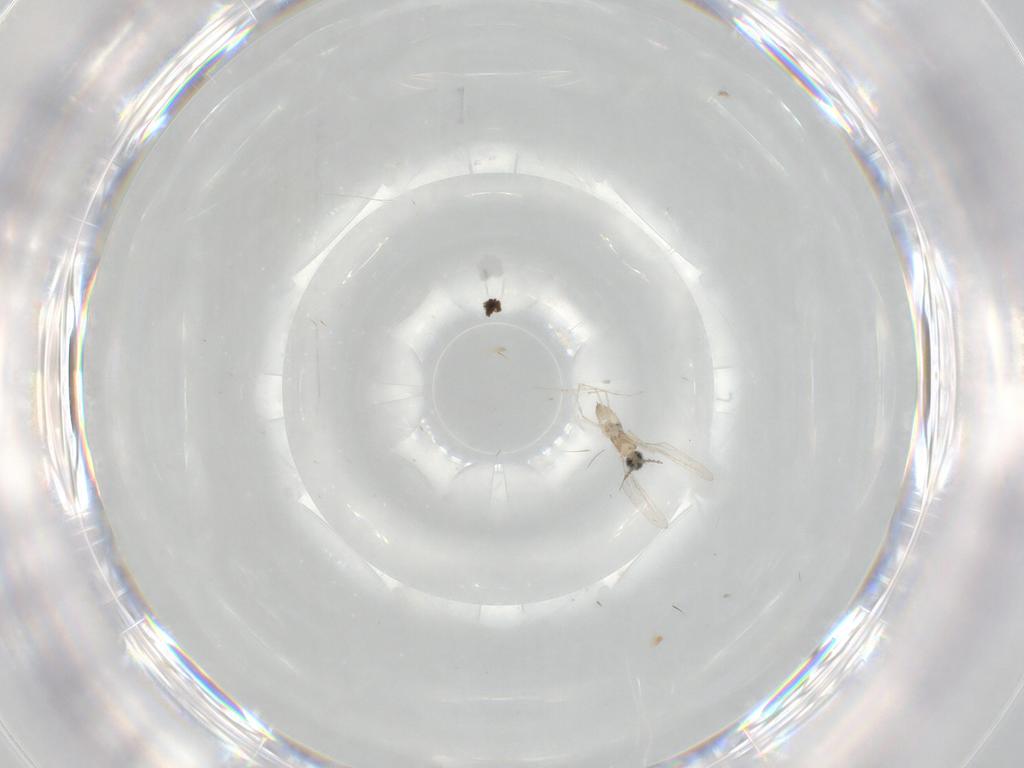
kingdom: Animalia
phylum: Arthropoda
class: Insecta
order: Diptera
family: Cecidomyiidae
